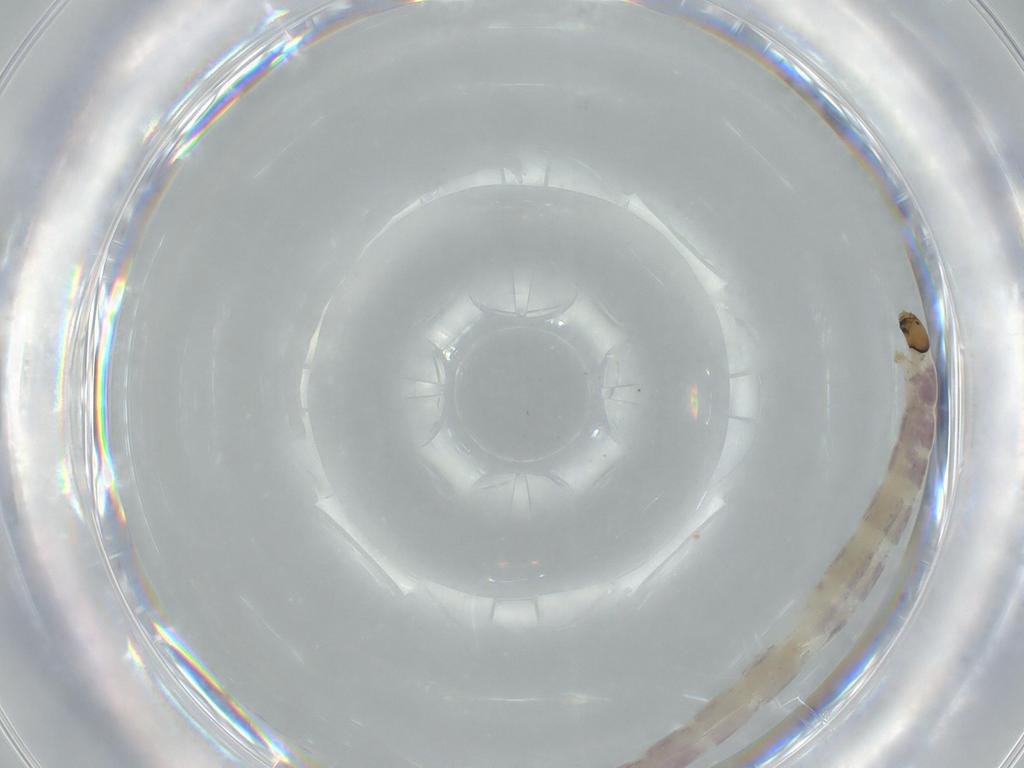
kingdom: Animalia
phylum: Arthropoda
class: Insecta
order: Diptera
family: Chironomidae
